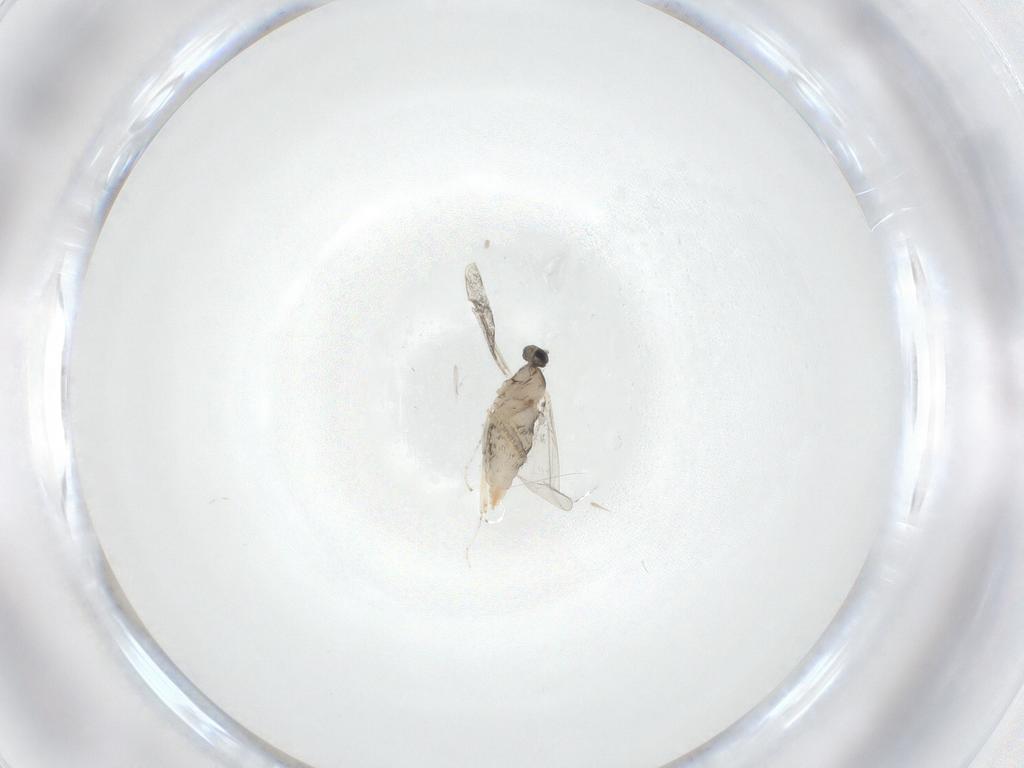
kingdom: Animalia
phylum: Arthropoda
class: Insecta
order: Diptera
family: Cecidomyiidae
